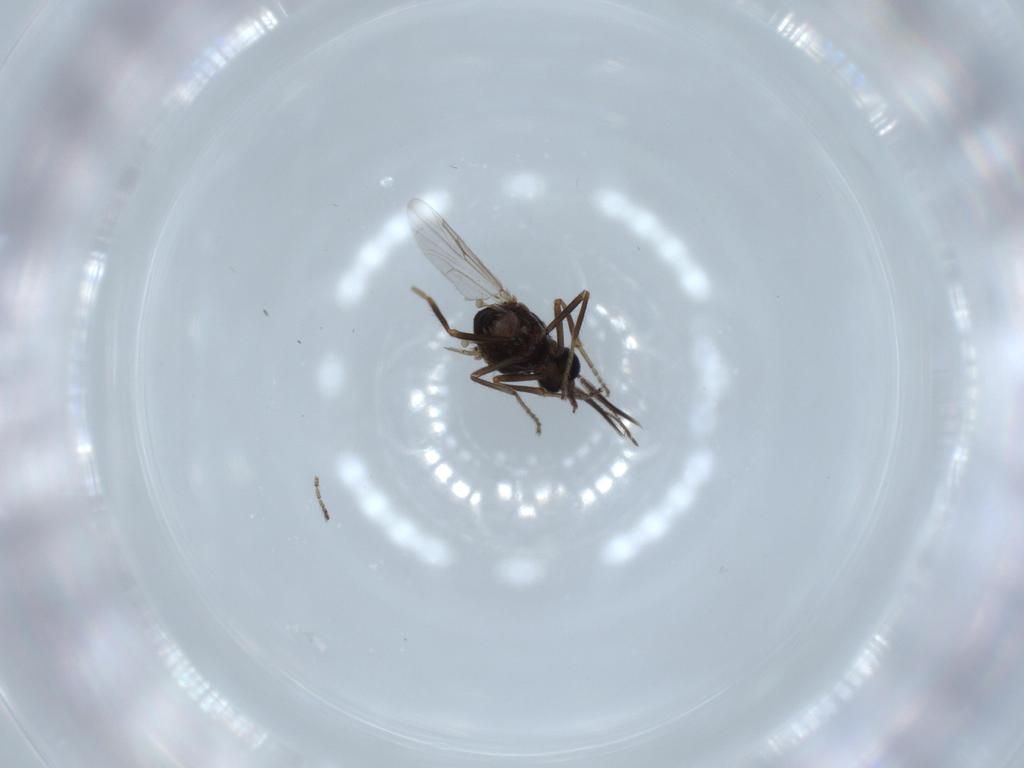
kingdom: Animalia
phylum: Arthropoda
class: Insecta
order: Diptera
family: Ceratopogonidae
